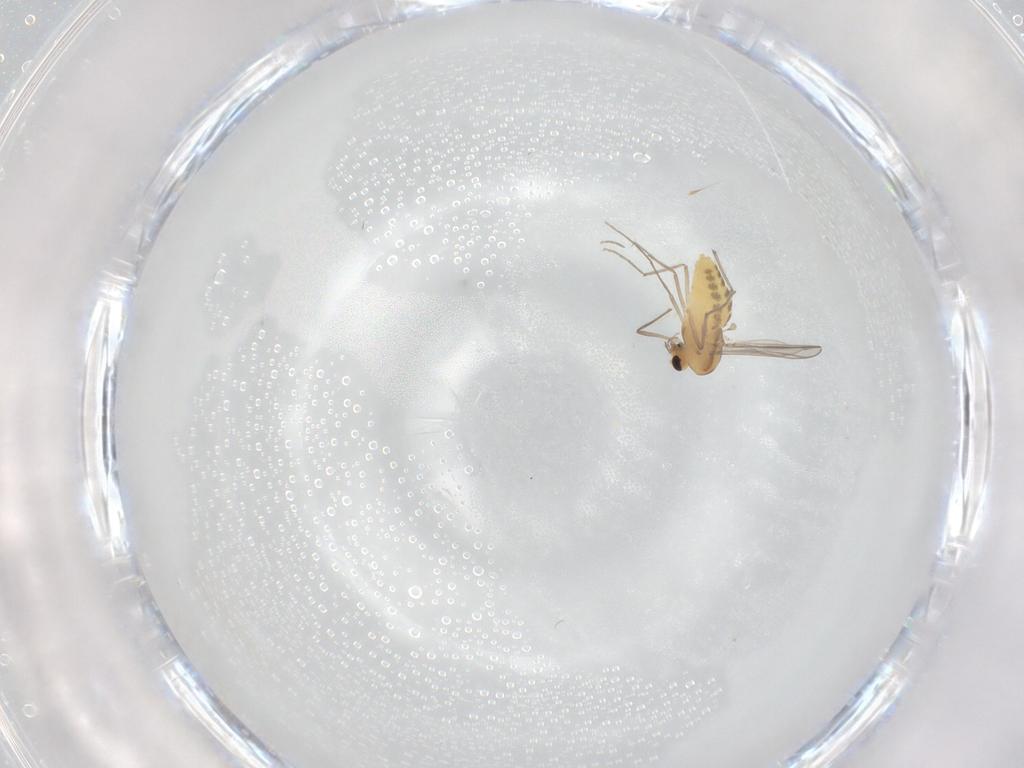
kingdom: Animalia
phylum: Arthropoda
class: Insecta
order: Diptera
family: Chironomidae
